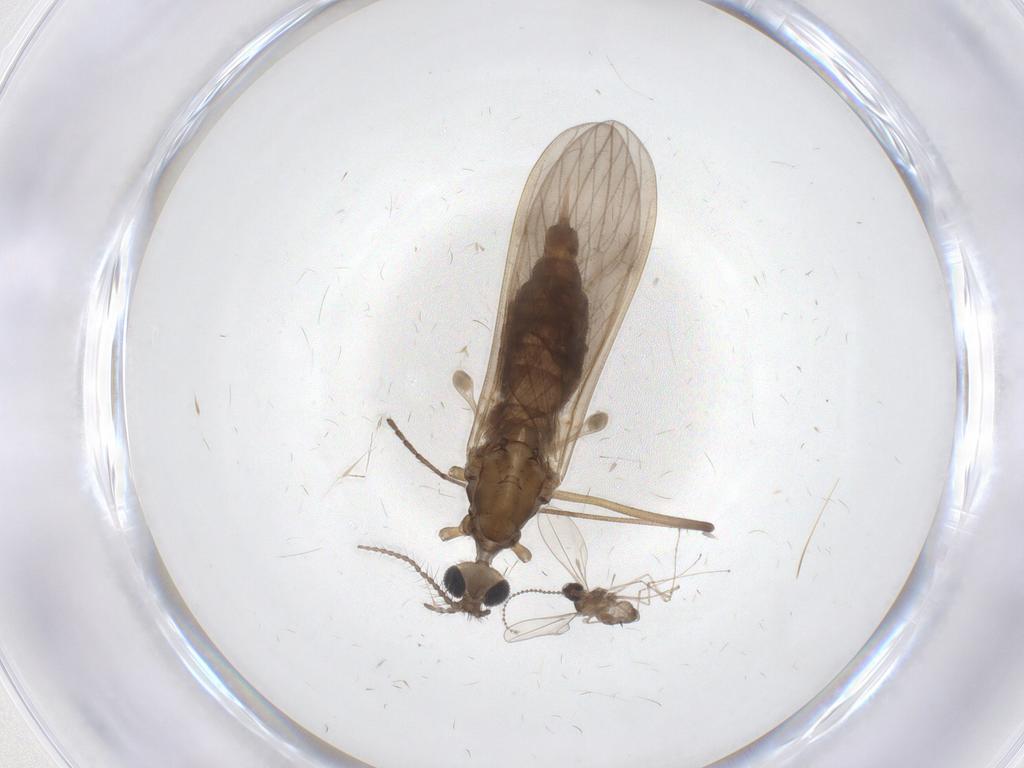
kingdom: Animalia
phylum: Arthropoda
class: Insecta
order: Diptera
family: Limoniidae
